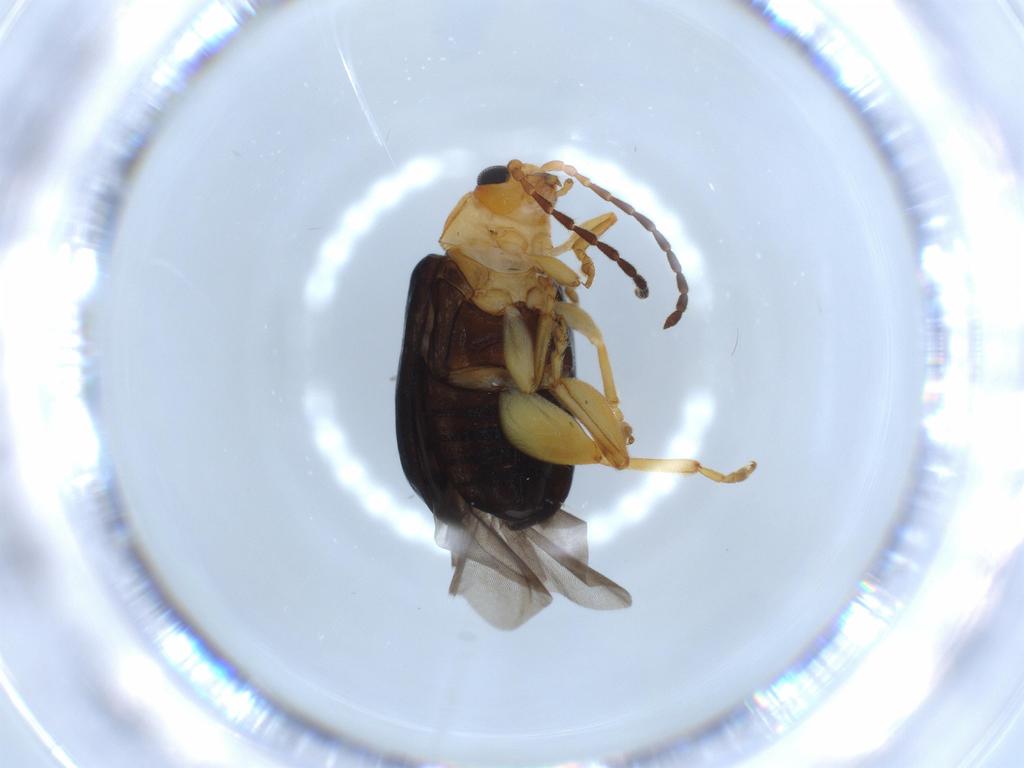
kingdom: Animalia
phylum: Arthropoda
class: Insecta
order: Coleoptera
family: Chrysomelidae
